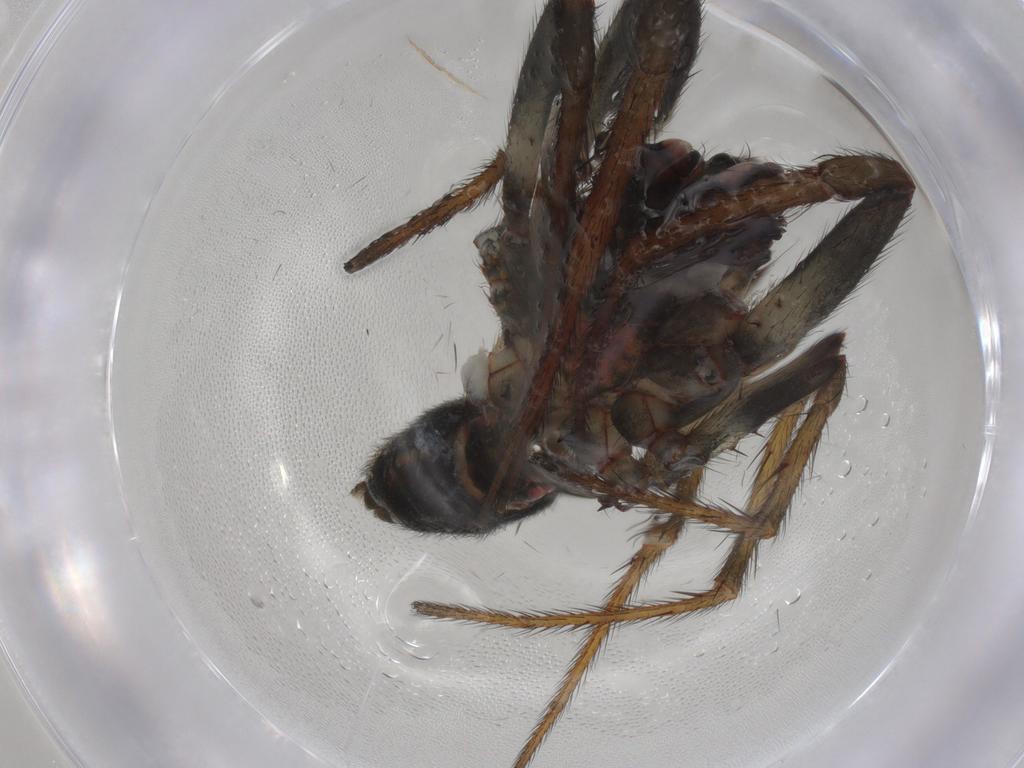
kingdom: Animalia
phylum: Arthropoda
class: Arachnida
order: Araneae
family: Araneidae
